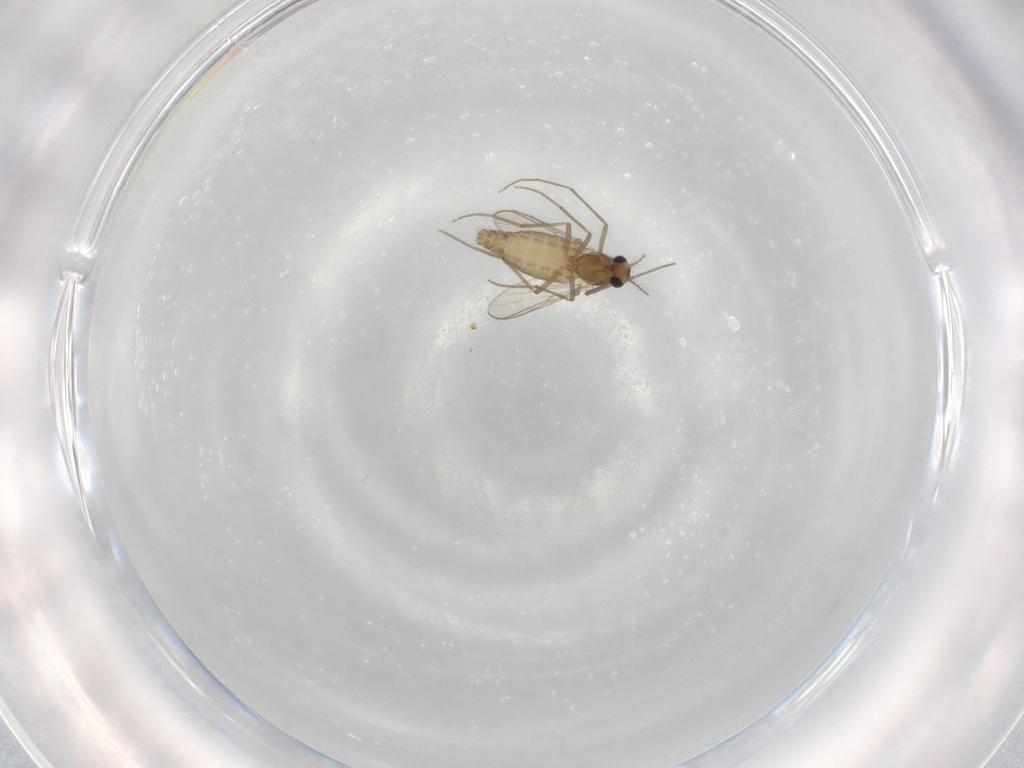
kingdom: Animalia
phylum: Arthropoda
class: Insecta
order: Diptera
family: Chironomidae
